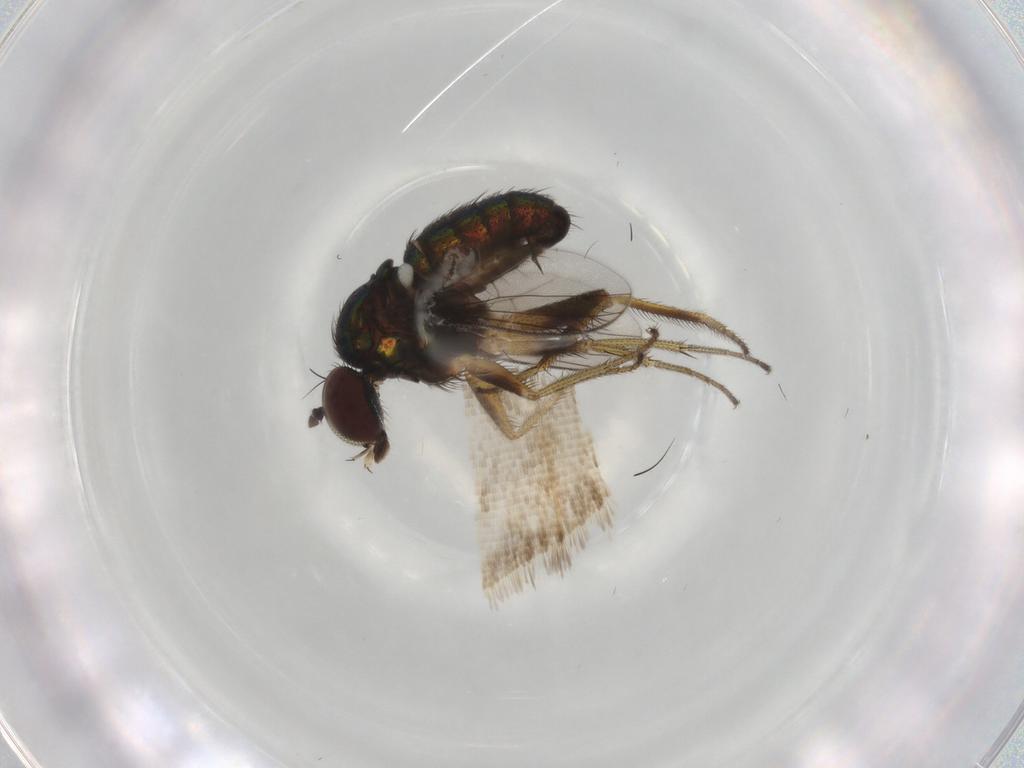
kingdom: Animalia
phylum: Arthropoda
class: Insecta
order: Diptera
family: Dolichopodidae
